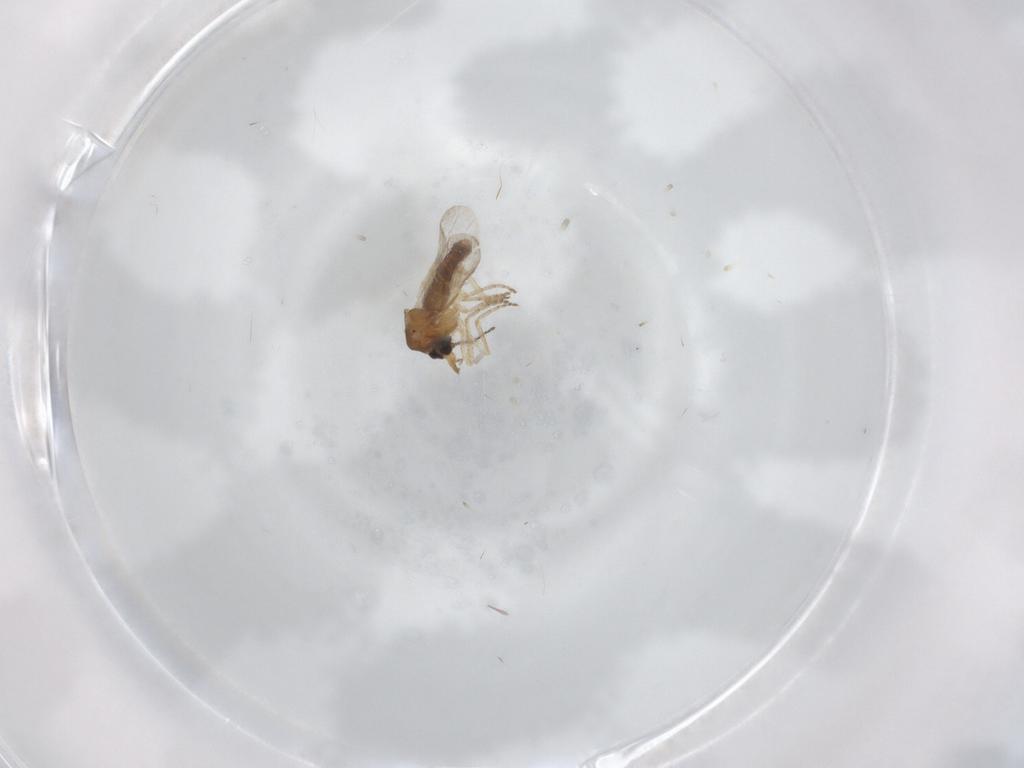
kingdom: Animalia
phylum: Arthropoda
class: Insecta
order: Diptera
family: Ceratopogonidae
